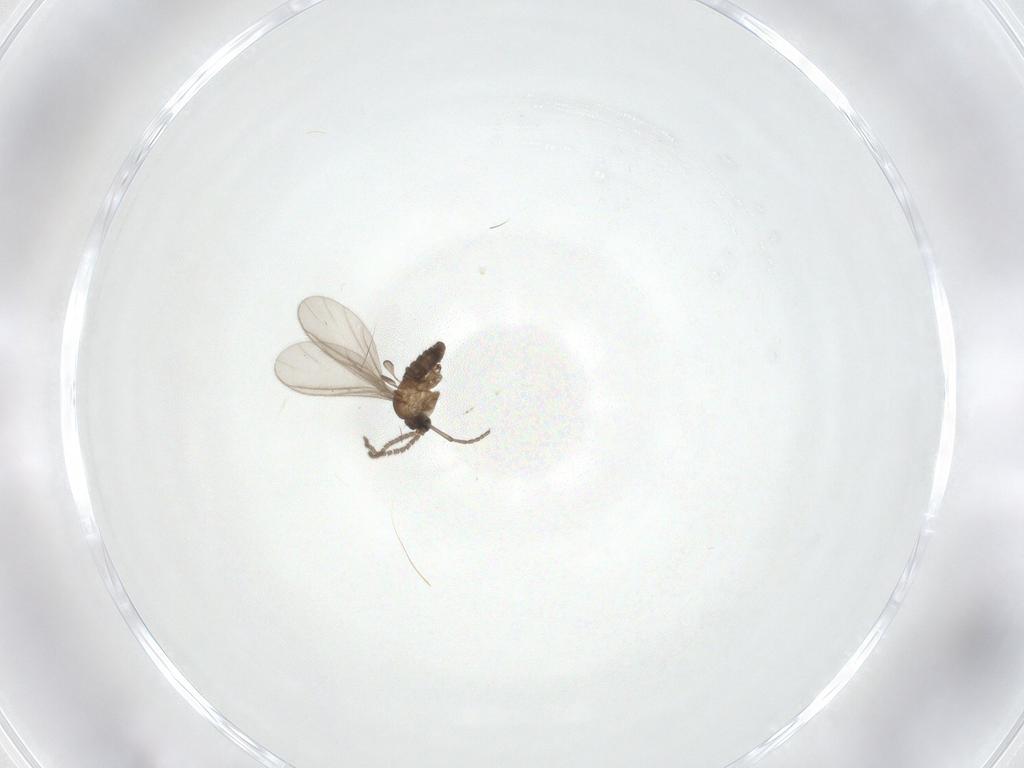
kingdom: Animalia
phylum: Arthropoda
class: Insecta
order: Diptera
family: Sciaridae
